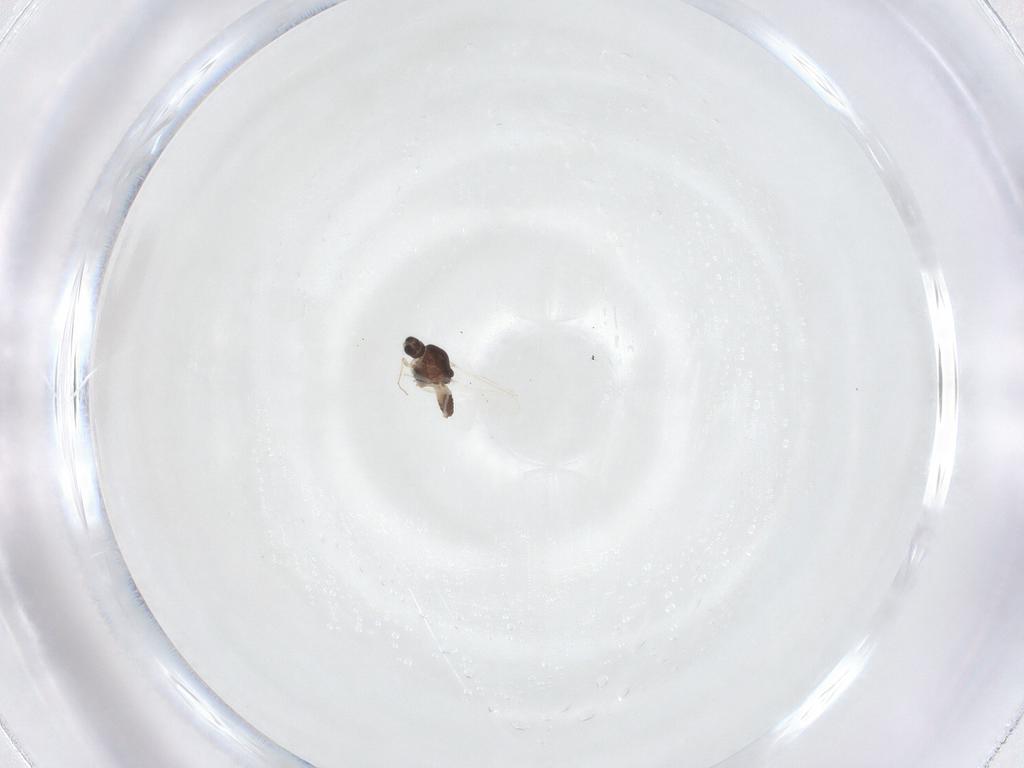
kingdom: Animalia
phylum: Arthropoda
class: Insecta
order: Diptera
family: Chironomidae
